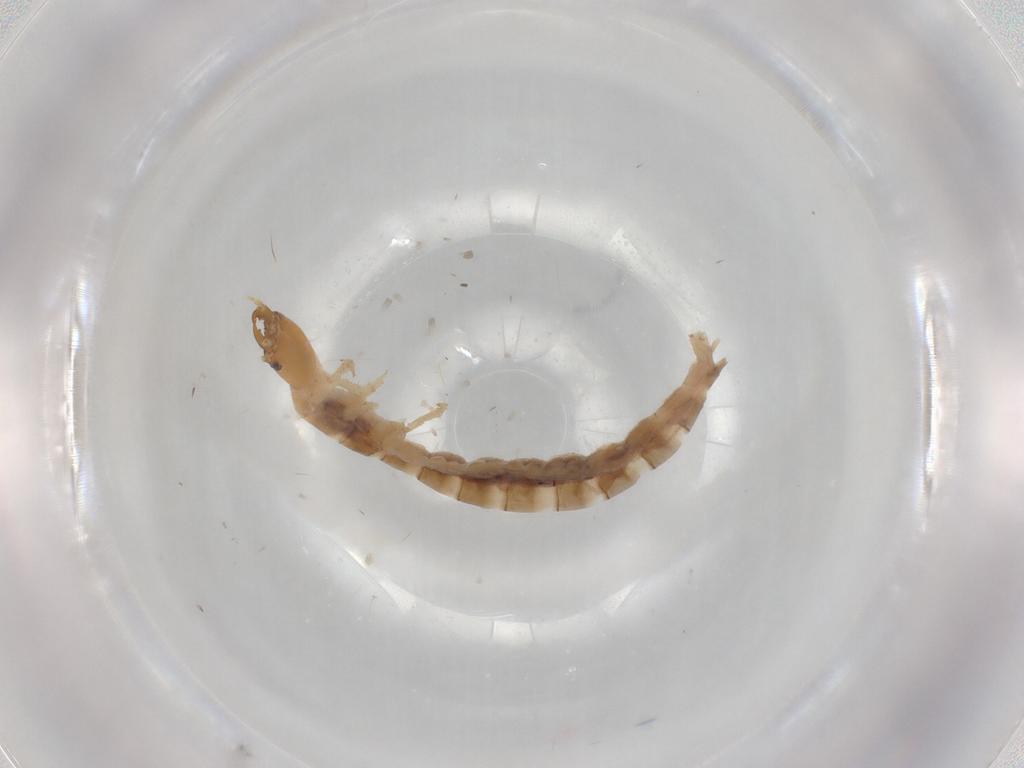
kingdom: Animalia
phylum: Arthropoda
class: Insecta
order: Coleoptera
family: Carabidae
